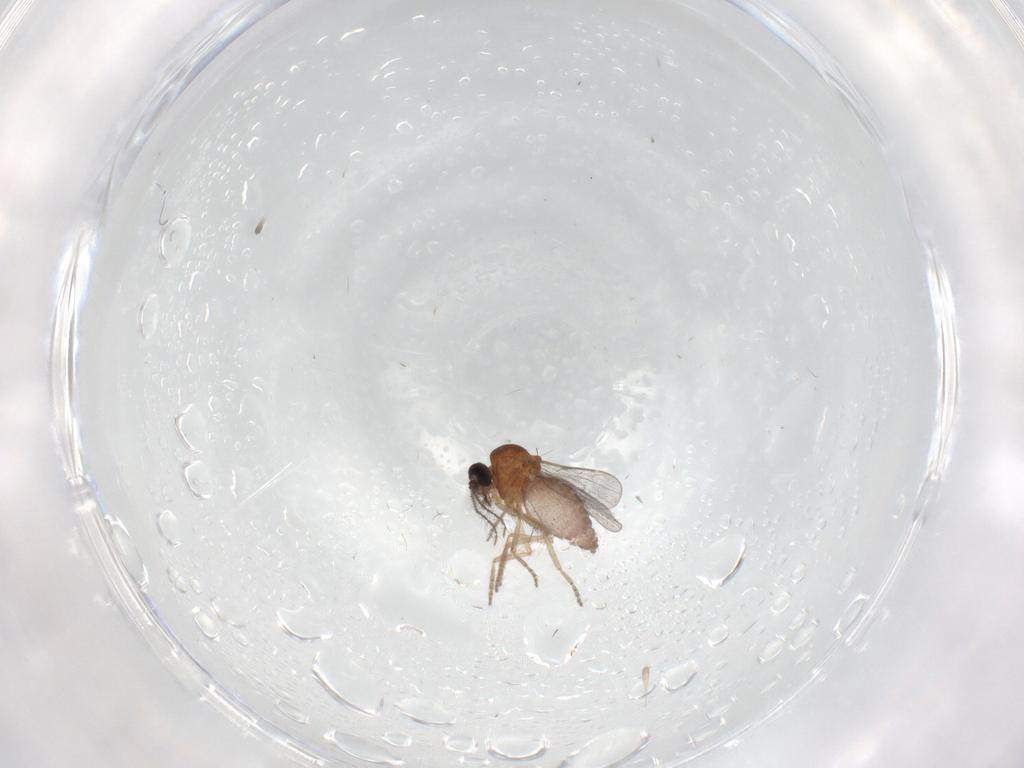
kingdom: Animalia
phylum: Arthropoda
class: Insecta
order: Diptera
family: Ceratopogonidae
